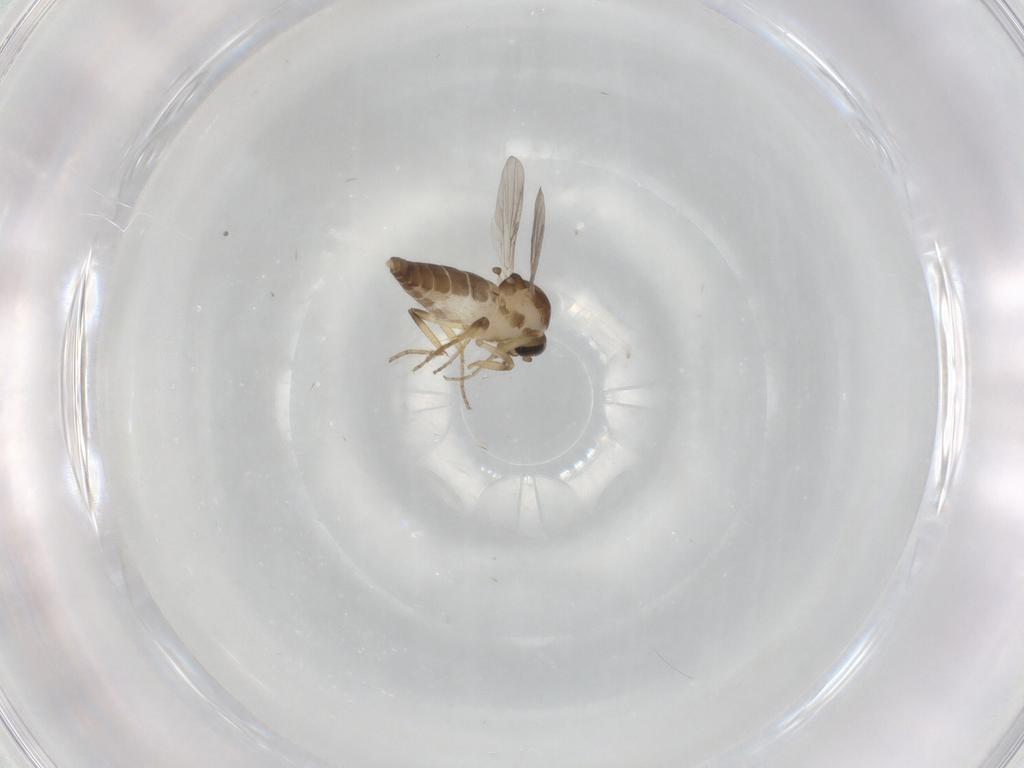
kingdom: Animalia
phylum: Arthropoda
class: Insecta
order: Diptera
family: Ceratopogonidae
